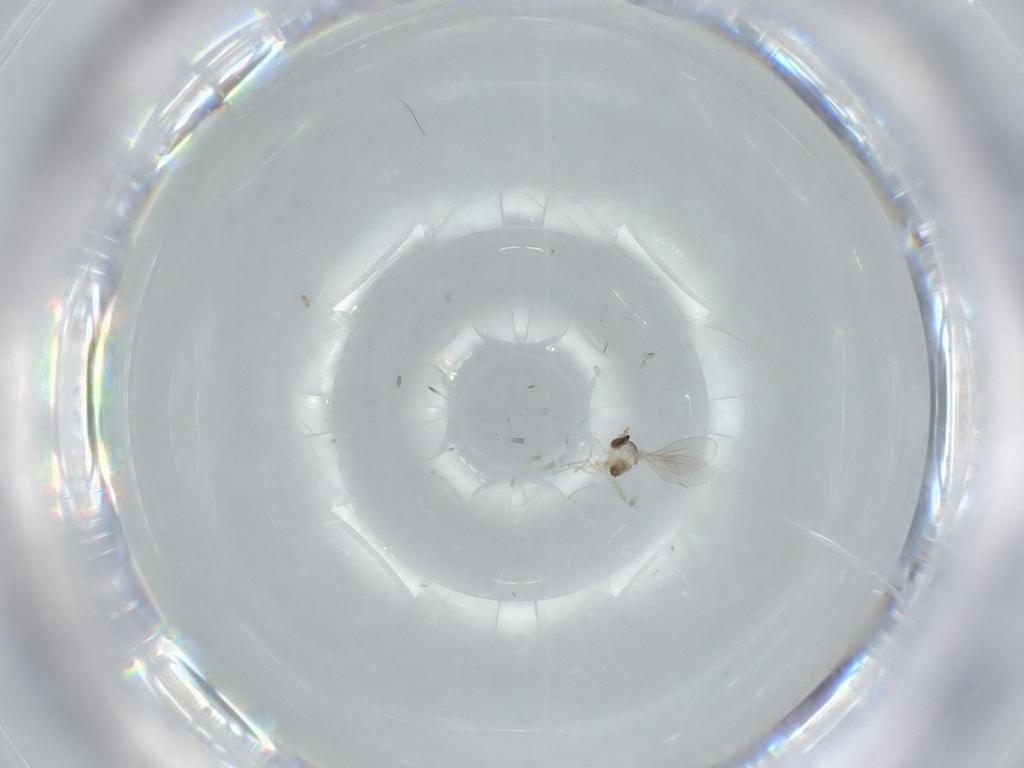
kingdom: Animalia
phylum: Arthropoda
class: Insecta
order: Diptera
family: Cecidomyiidae
